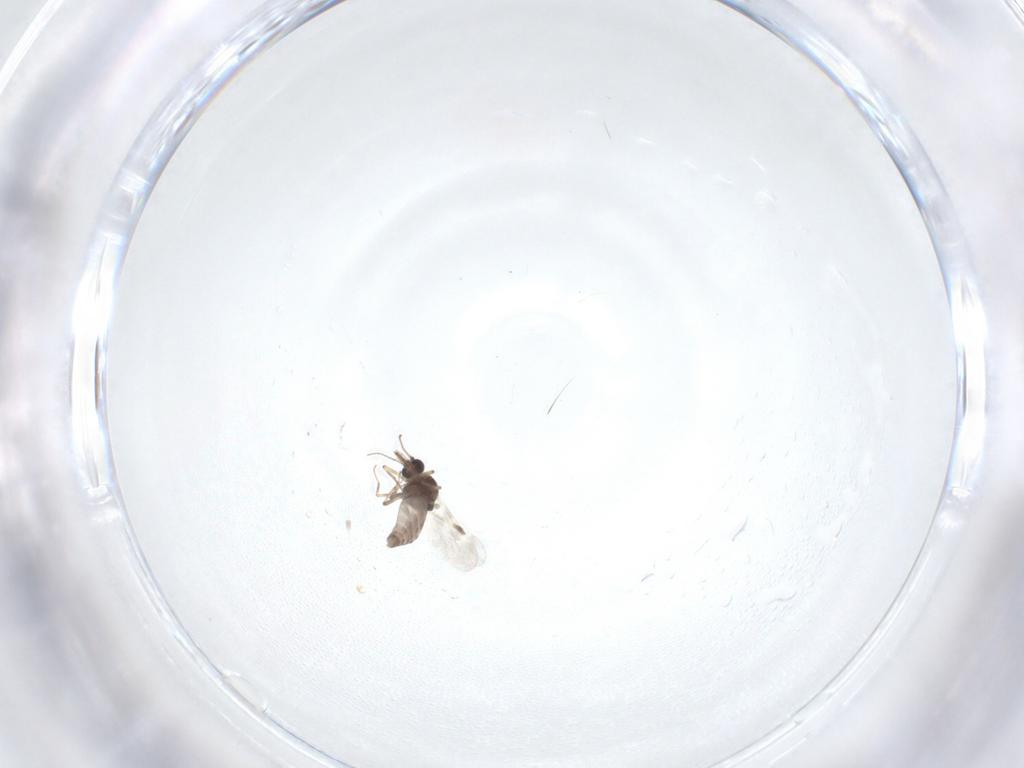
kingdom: Animalia
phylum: Arthropoda
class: Insecta
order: Diptera
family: Mycetophilidae
